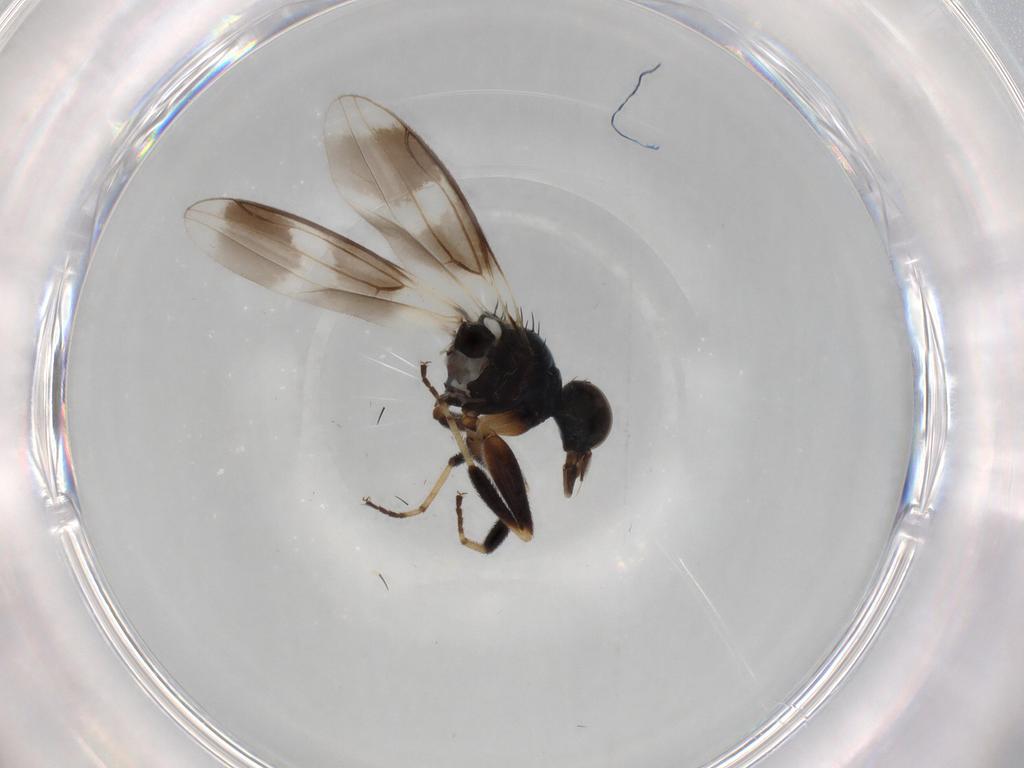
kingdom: Animalia
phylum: Arthropoda
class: Insecta
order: Diptera
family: Hybotidae
